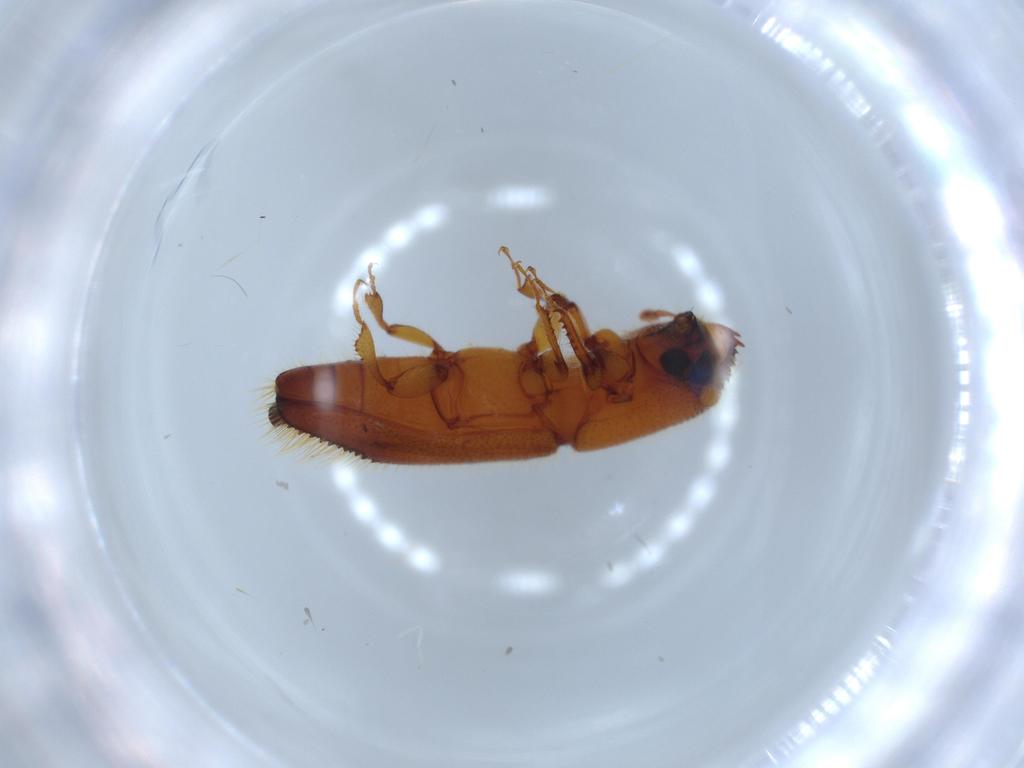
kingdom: Animalia
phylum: Arthropoda
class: Insecta
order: Coleoptera
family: Curculionidae
